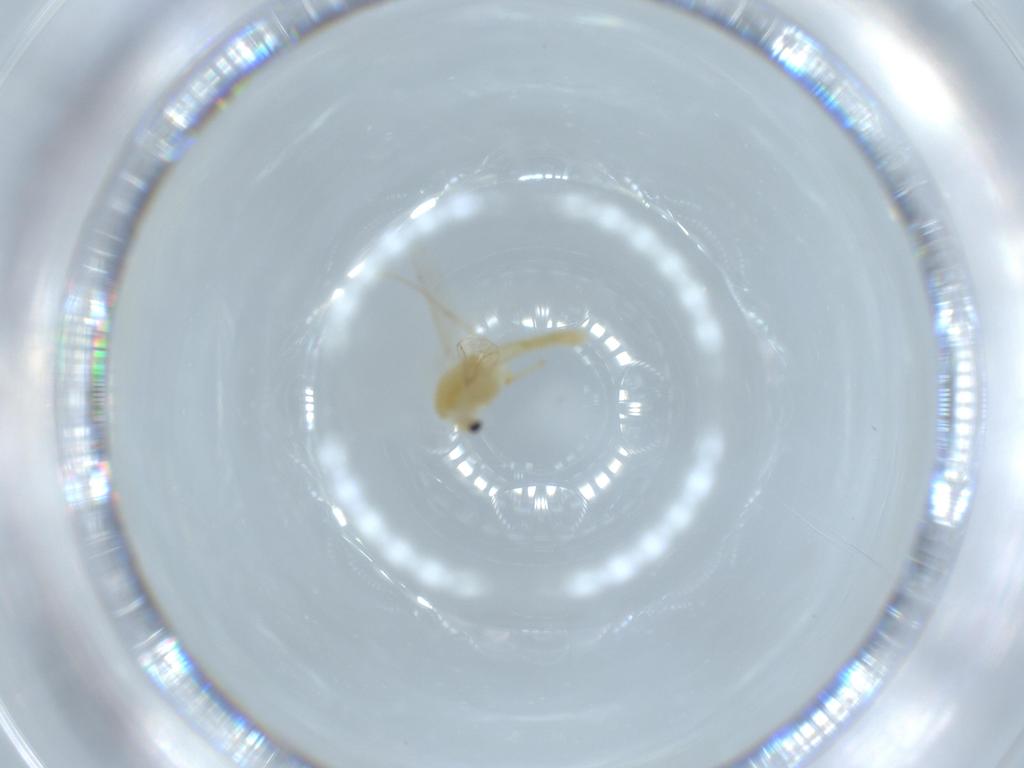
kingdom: Animalia
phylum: Arthropoda
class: Insecta
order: Diptera
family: Chironomidae
